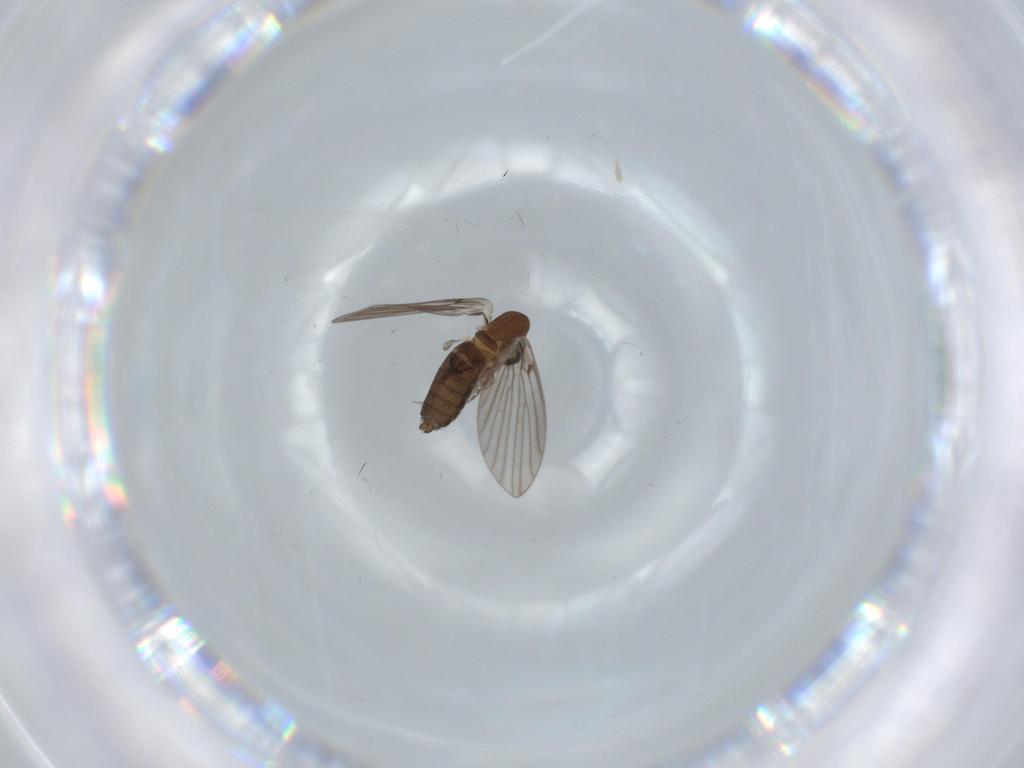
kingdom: Animalia
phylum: Arthropoda
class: Insecta
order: Diptera
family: Psychodidae
